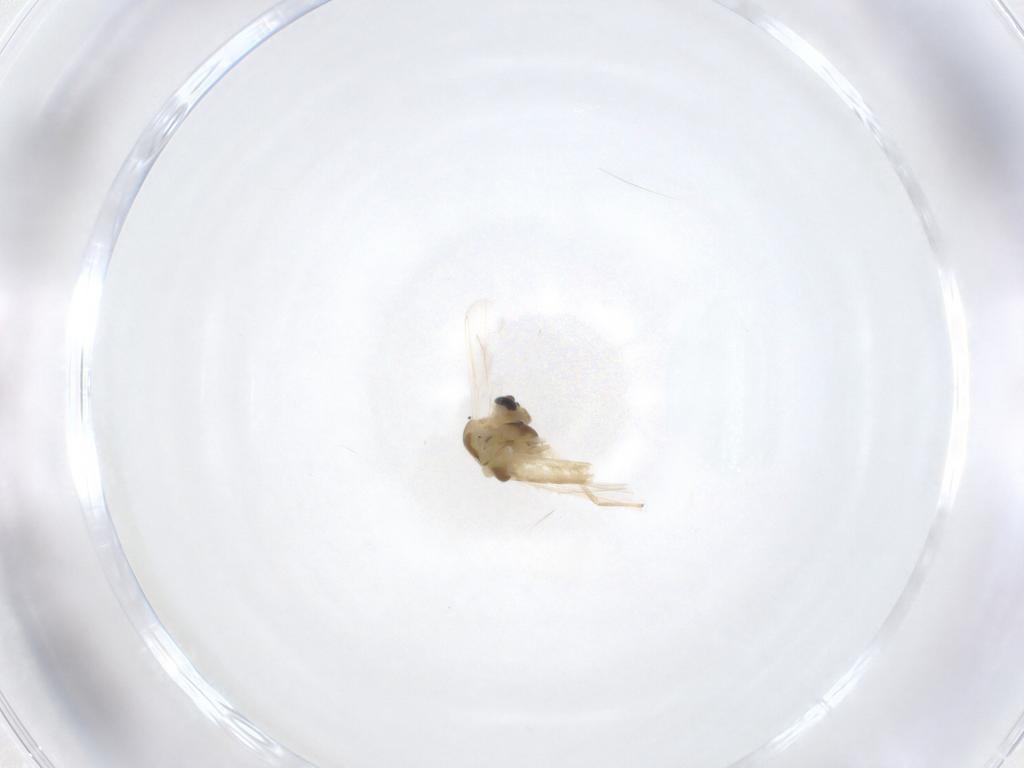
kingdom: Animalia
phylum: Arthropoda
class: Insecta
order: Diptera
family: Chironomidae
